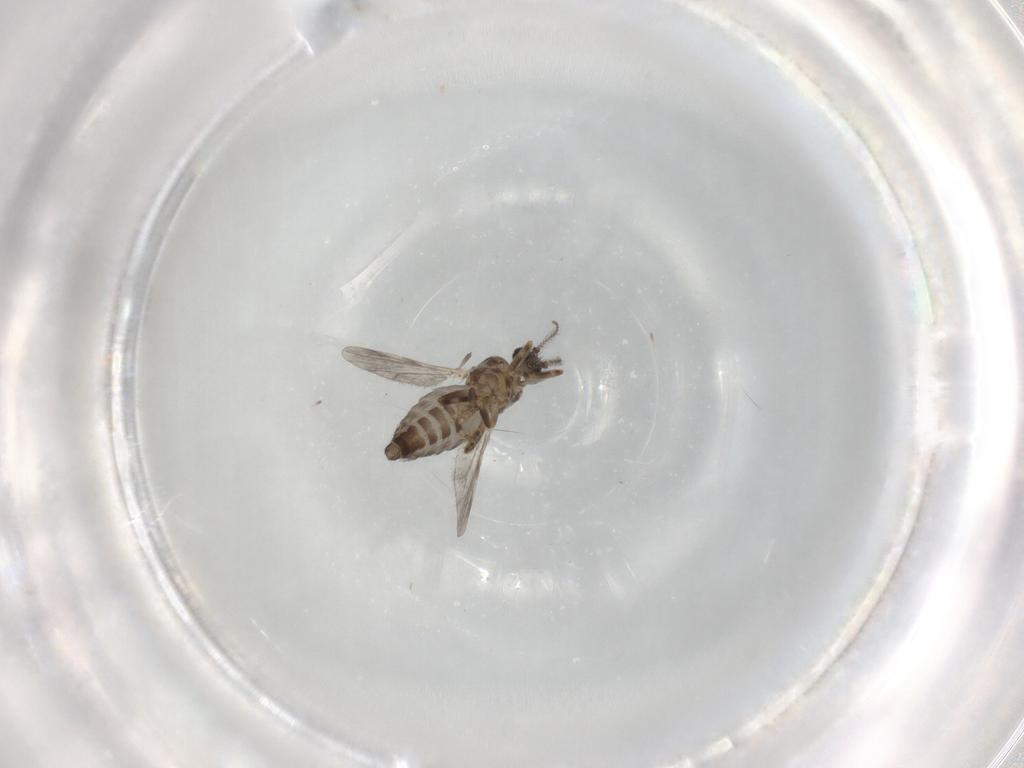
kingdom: Animalia
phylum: Arthropoda
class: Insecta
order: Diptera
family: Ceratopogonidae
